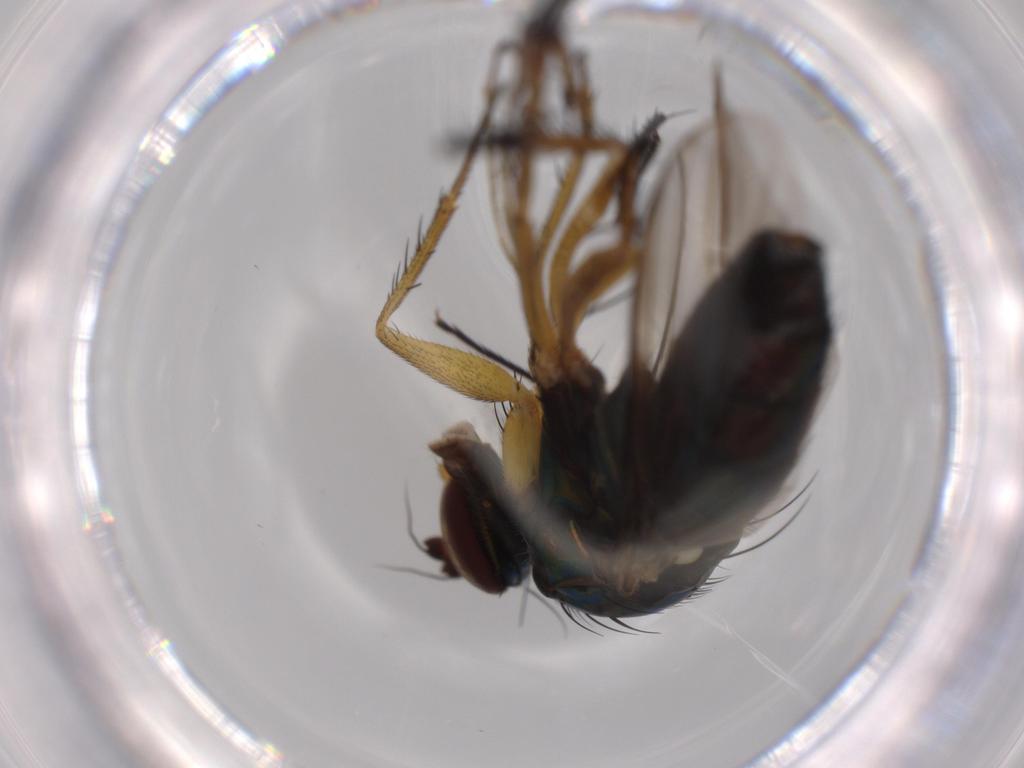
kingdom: Animalia
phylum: Arthropoda
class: Insecta
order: Diptera
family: Dolichopodidae
